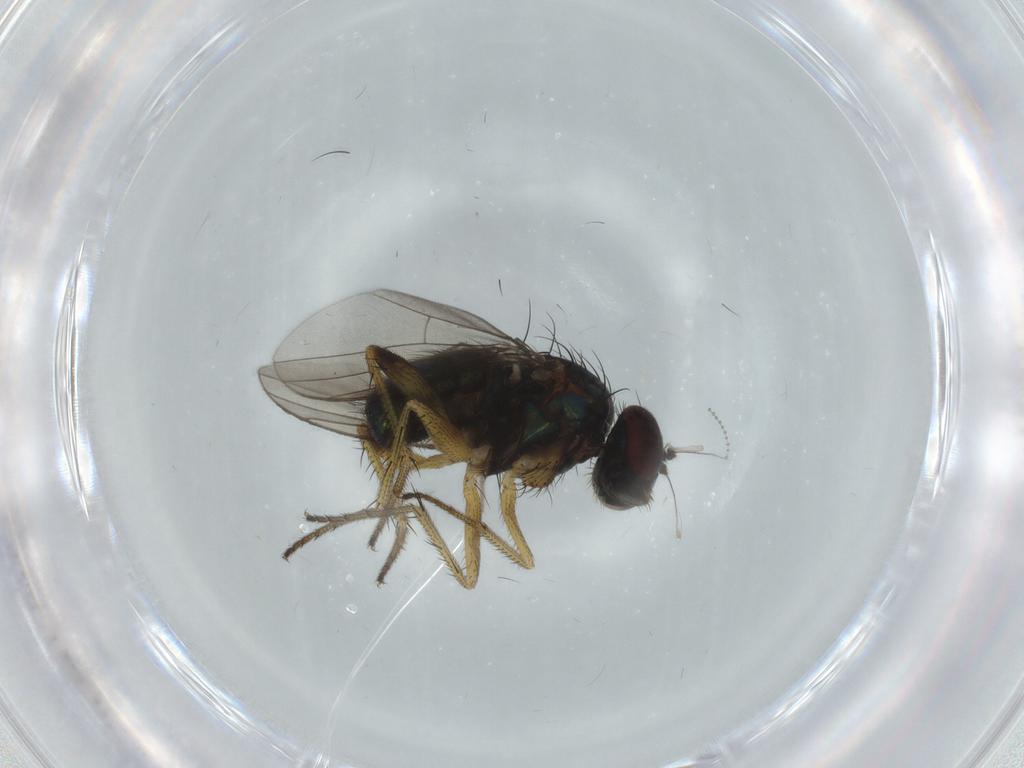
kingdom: Animalia
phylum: Arthropoda
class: Insecta
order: Diptera
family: Dolichopodidae
